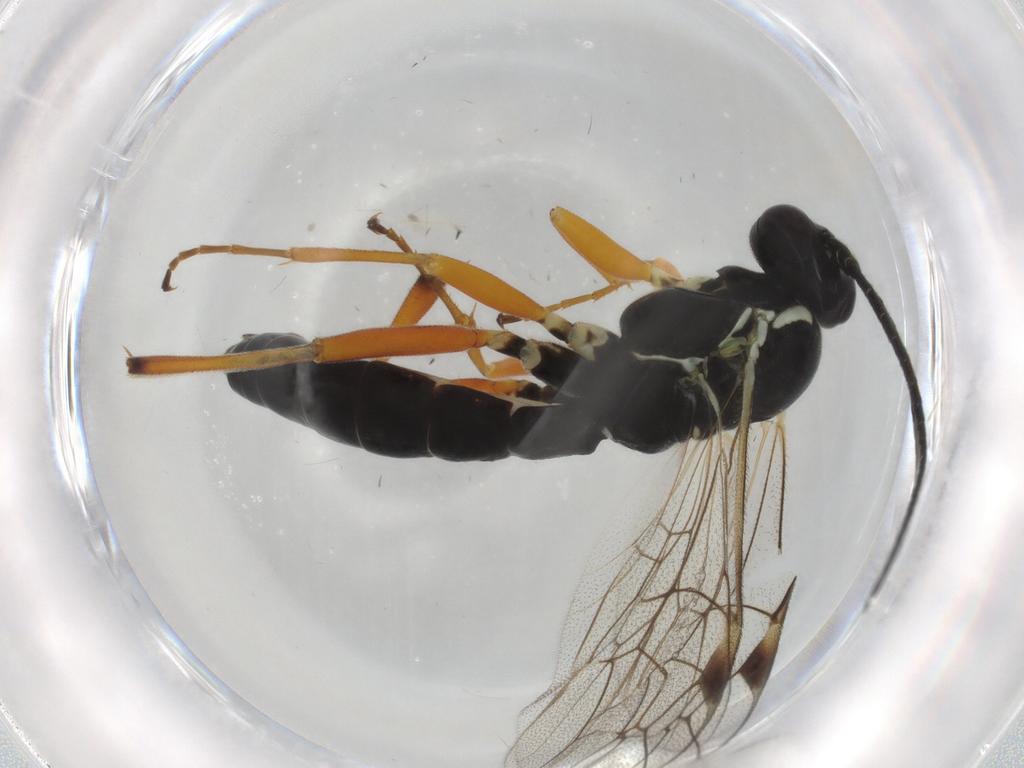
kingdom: Animalia
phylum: Arthropoda
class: Insecta
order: Hymenoptera
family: Ichneumonidae
